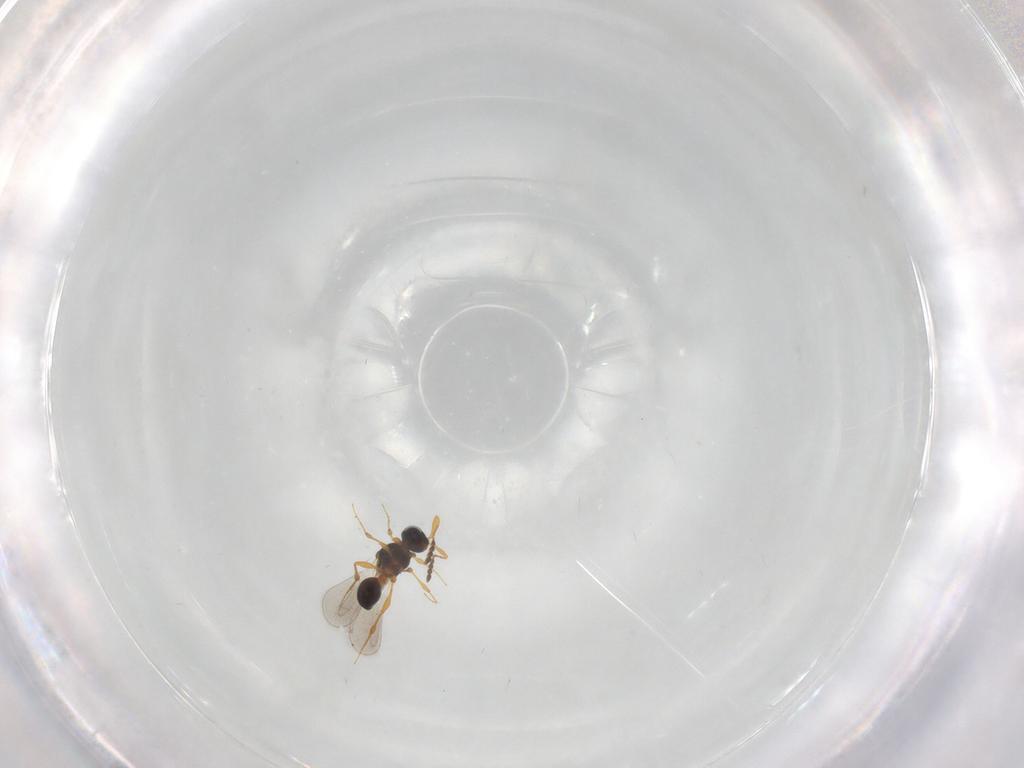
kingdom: Animalia
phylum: Arthropoda
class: Insecta
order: Hymenoptera
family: Platygastridae
